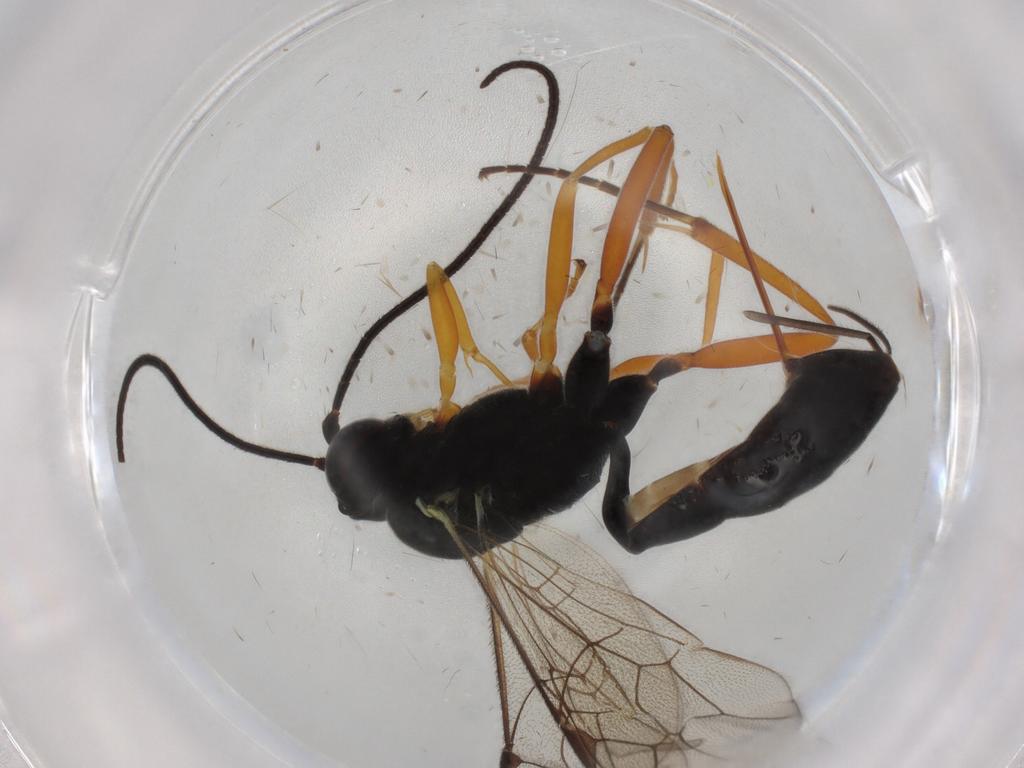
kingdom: Animalia
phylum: Arthropoda
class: Insecta
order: Hymenoptera
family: Ichneumonidae
